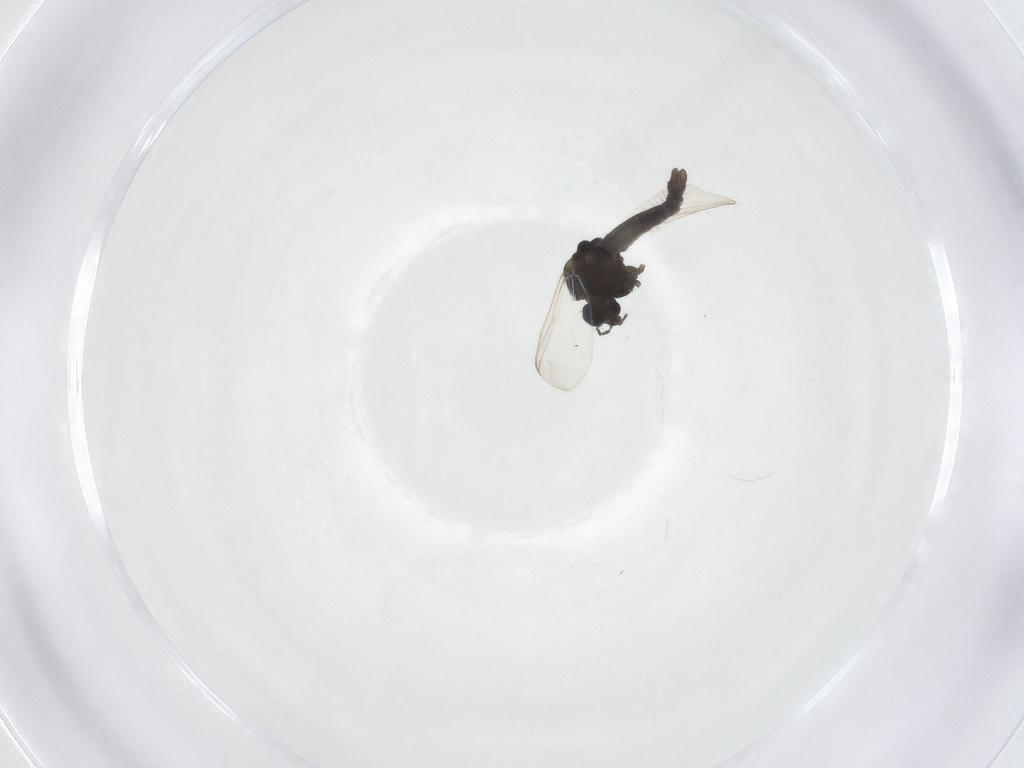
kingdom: Animalia
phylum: Arthropoda
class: Insecta
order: Diptera
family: Chironomidae
